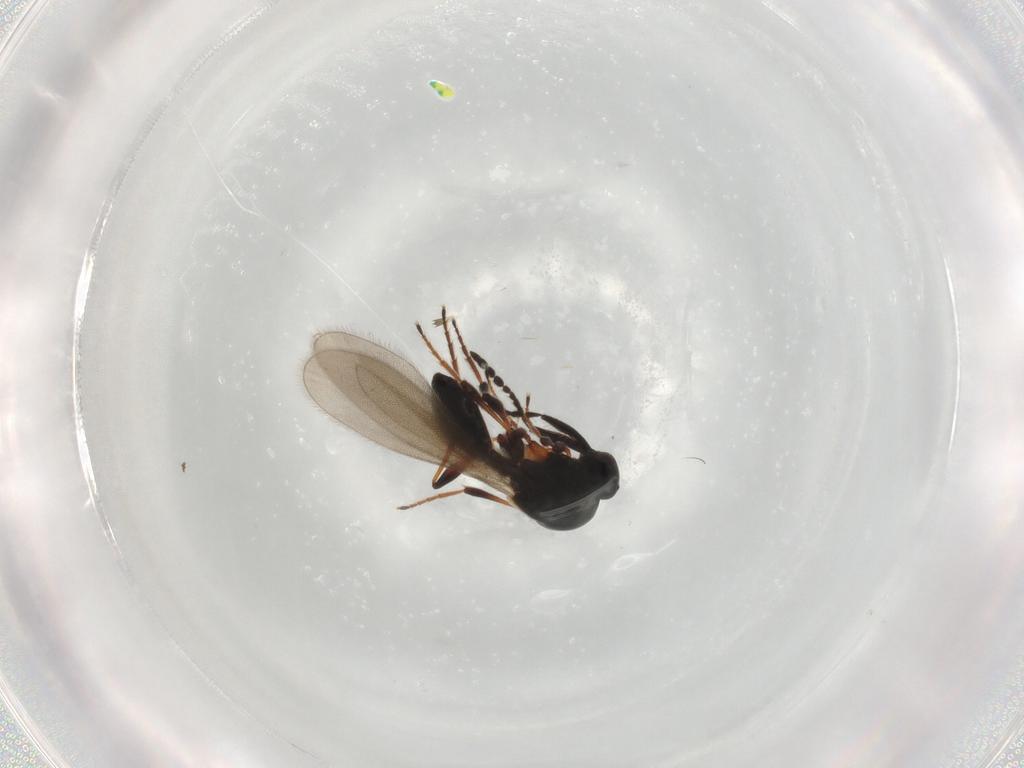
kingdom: Animalia
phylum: Arthropoda
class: Insecta
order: Hymenoptera
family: Platygastridae
